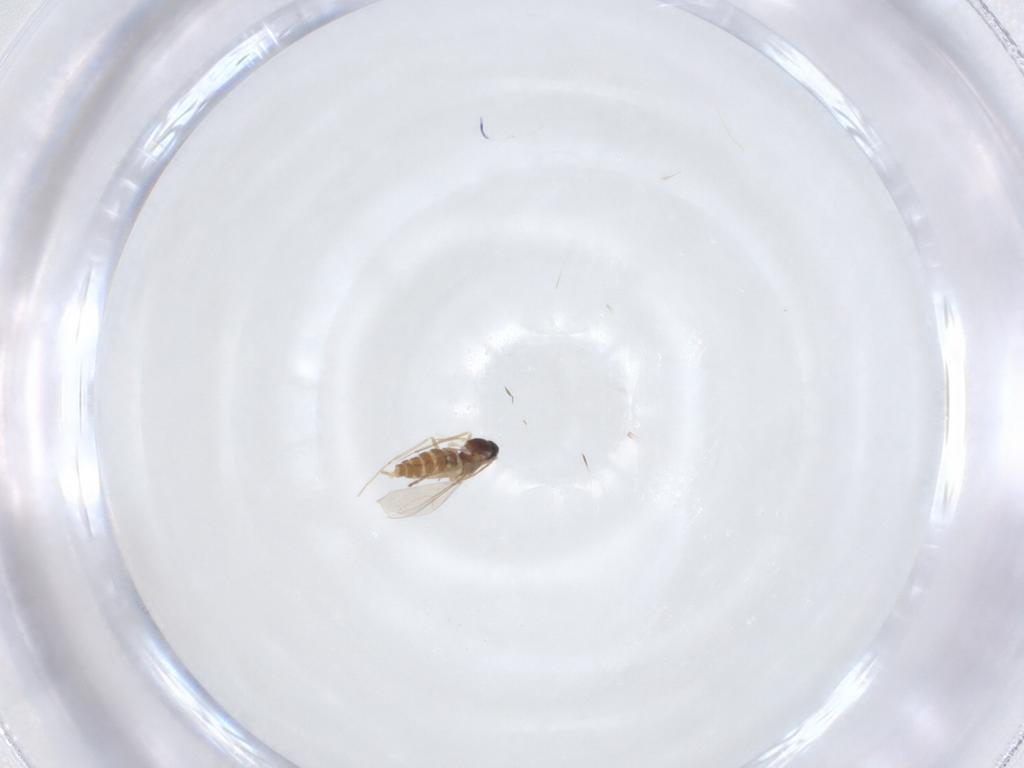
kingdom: Animalia
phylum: Arthropoda
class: Insecta
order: Diptera
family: Cecidomyiidae
